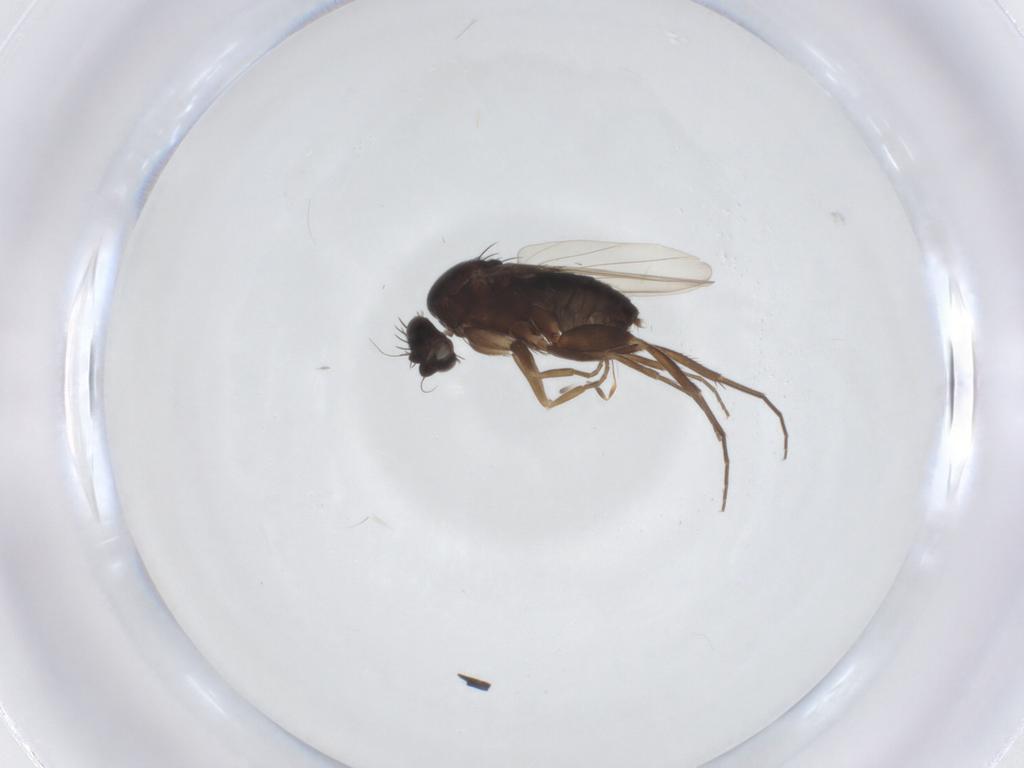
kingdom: Animalia
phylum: Arthropoda
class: Insecta
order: Diptera
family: Phoridae
